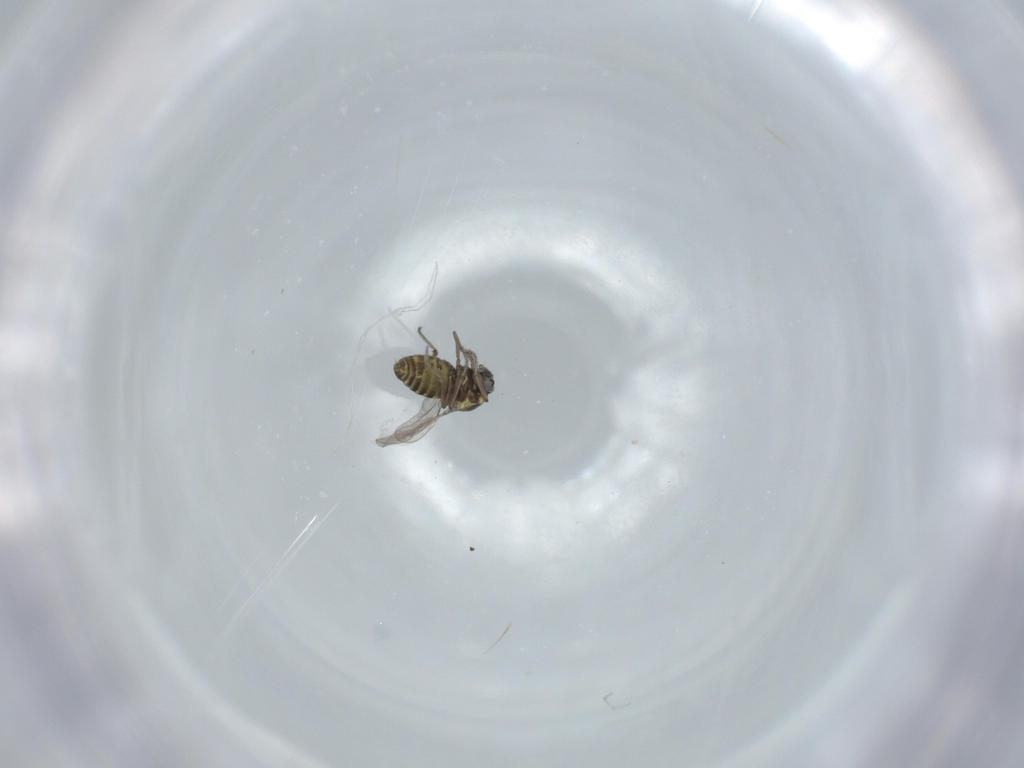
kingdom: Animalia
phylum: Arthropoda
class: Insecta
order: Diptera
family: Ceratopogonidae
